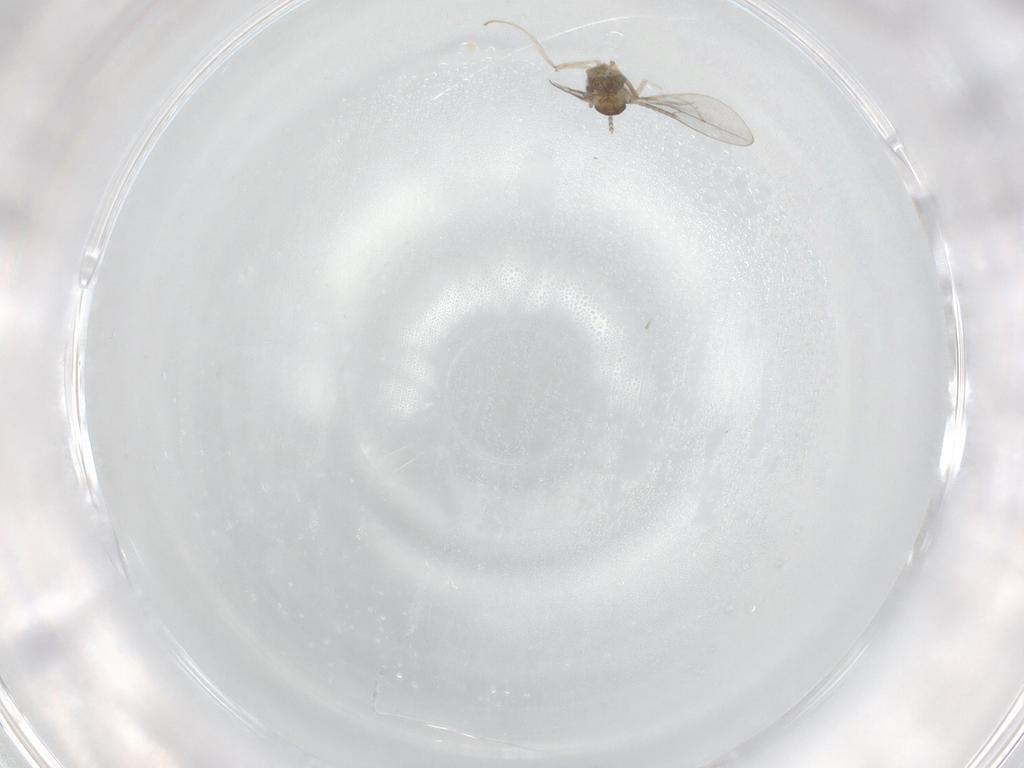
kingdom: Animalia
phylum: Arthropoda
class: Insecta
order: Diptera
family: Cecidomyiidae
